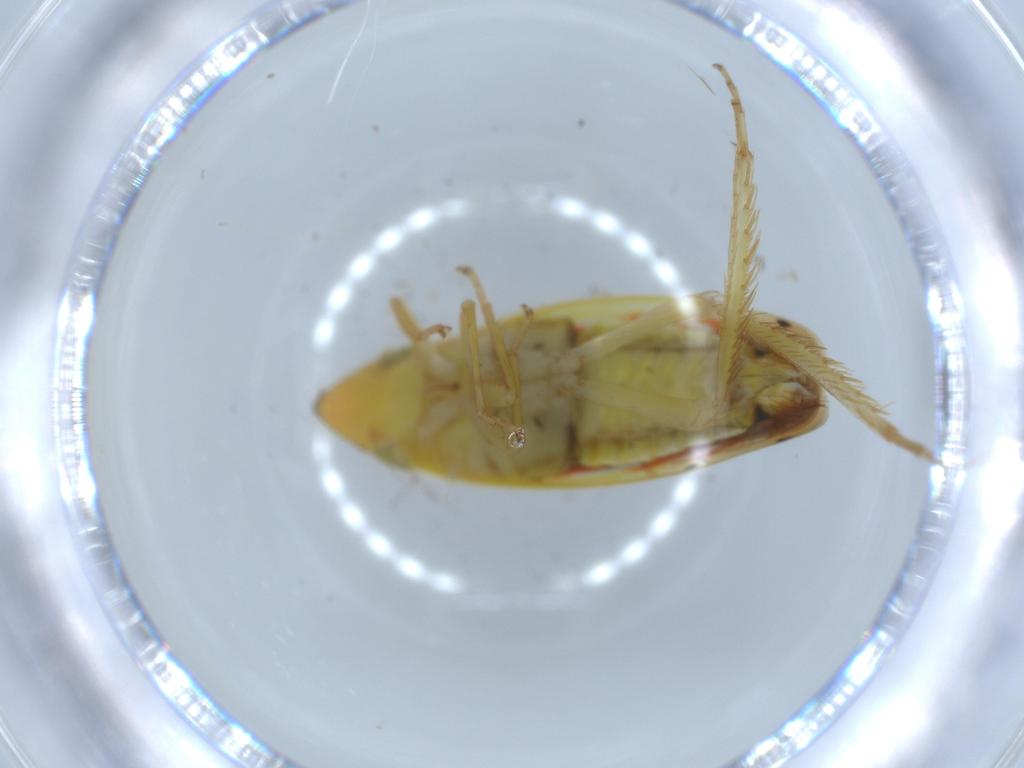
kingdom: Animalia
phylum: Arthropoda
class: Insecta
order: Hemiptera
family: Cicadellidae
